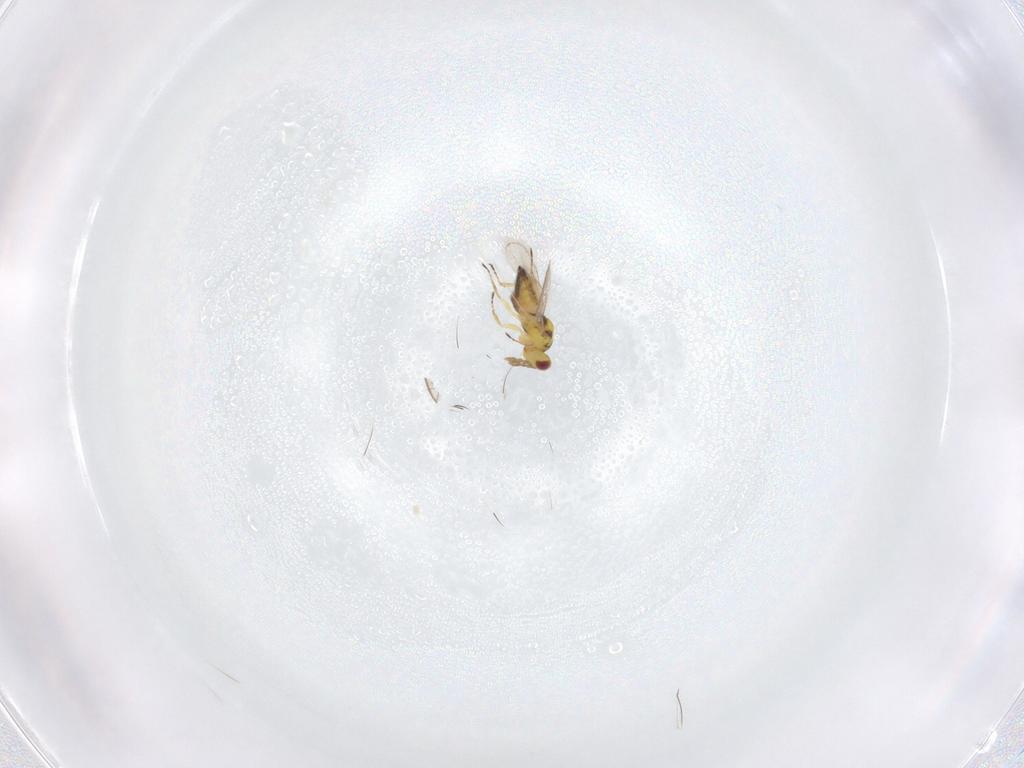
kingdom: Animalia
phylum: Arthropoda
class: Insecta
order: Hymenoptera
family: Eulophidae
